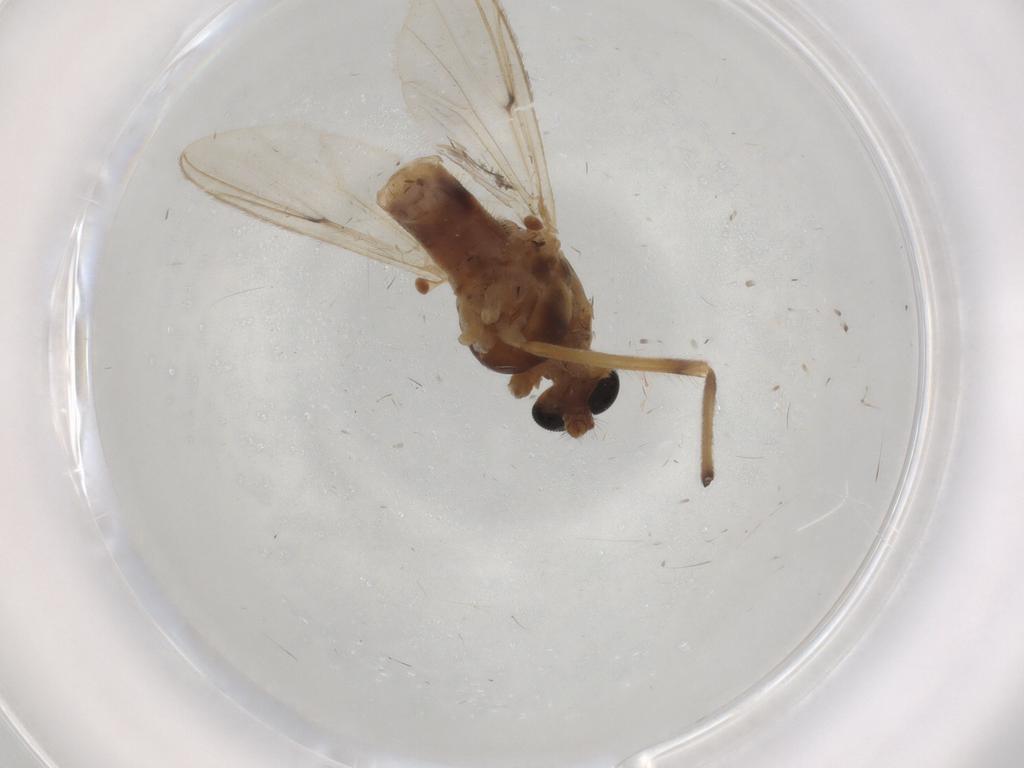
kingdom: Animalia
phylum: Arthropoda
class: Insecta
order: Diptera
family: Chironomidae
